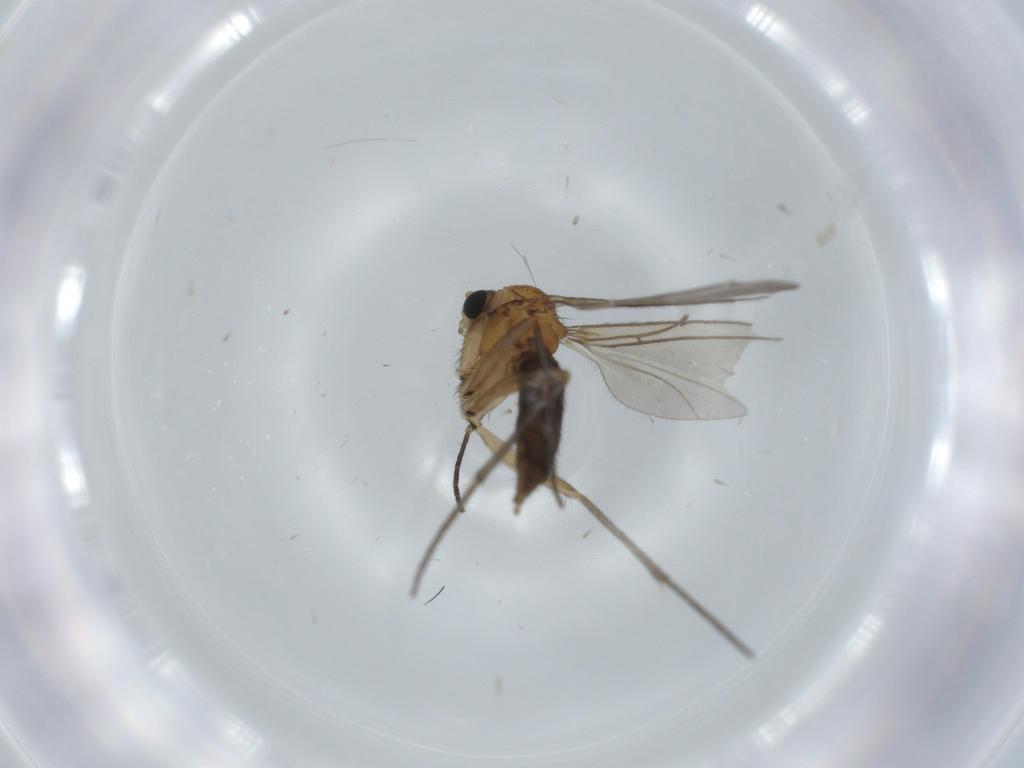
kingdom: Animalia
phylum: Arthropoda
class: Insecta
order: Diptera
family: Sciaridae
